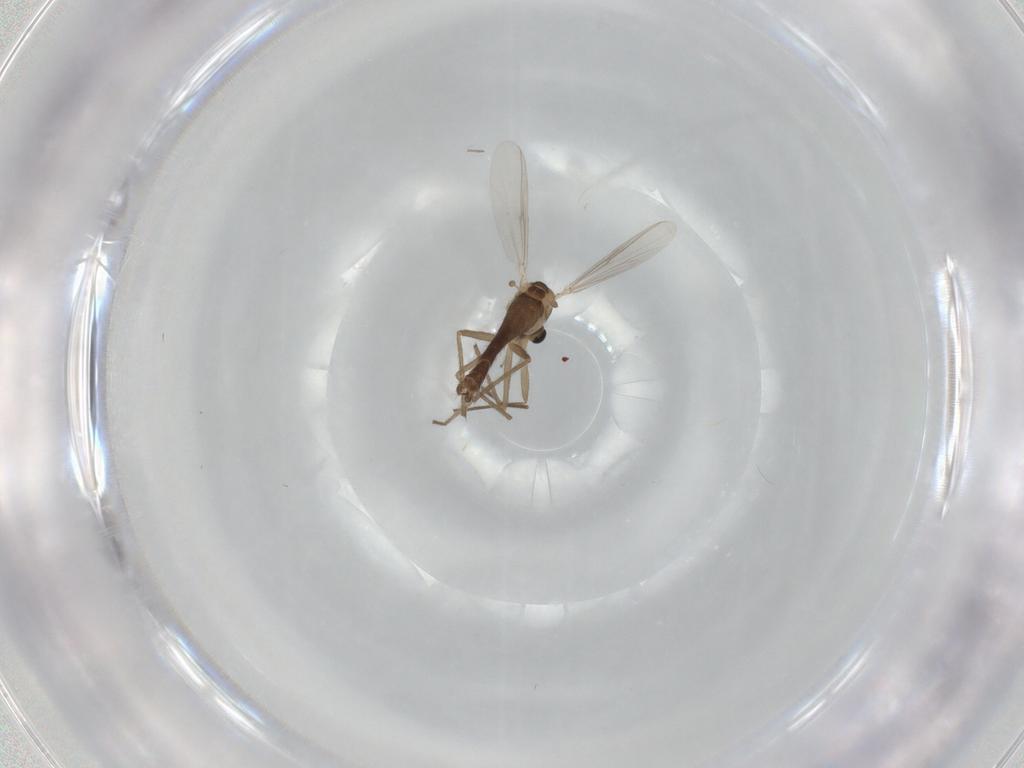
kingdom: Animalia
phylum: Arthropoda
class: Insecta
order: Diptera
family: Chironomidae
